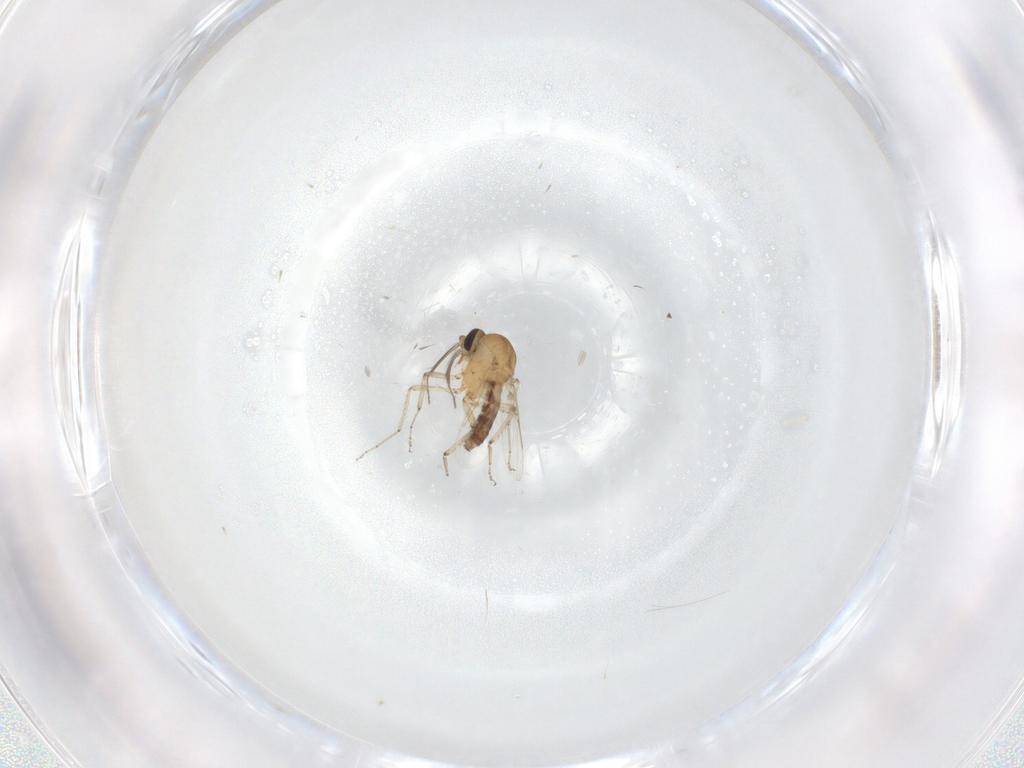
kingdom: Animalia
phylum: Arthropoda
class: Insecta
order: Diptera
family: Ceratopogonidae
